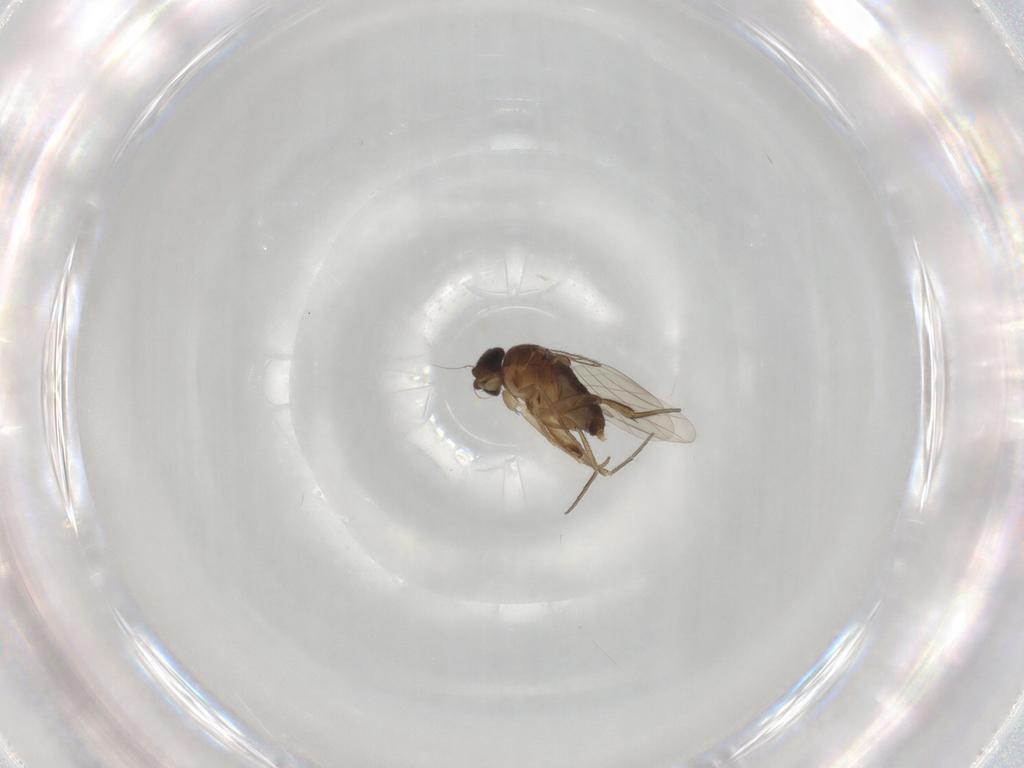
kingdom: Animalia
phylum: Arthropoda
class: Insecta
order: Diptera
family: Phoridae
